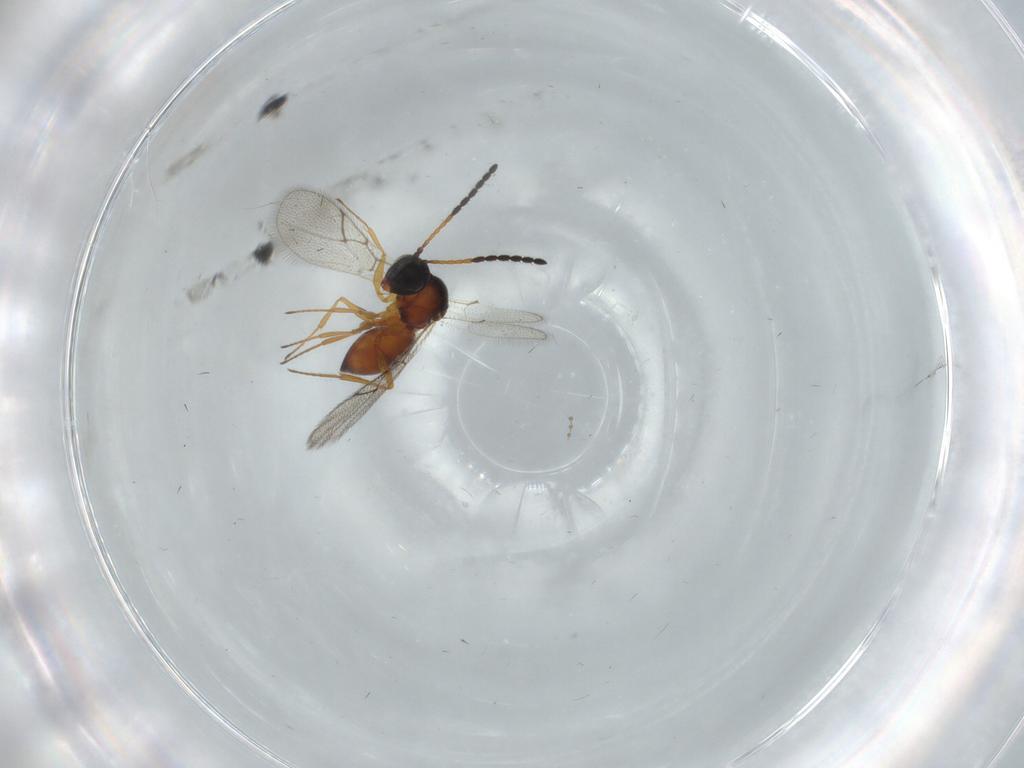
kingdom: Animalia
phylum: Arthropoda
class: Insecta
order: Hymenoptera
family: Figitidae
